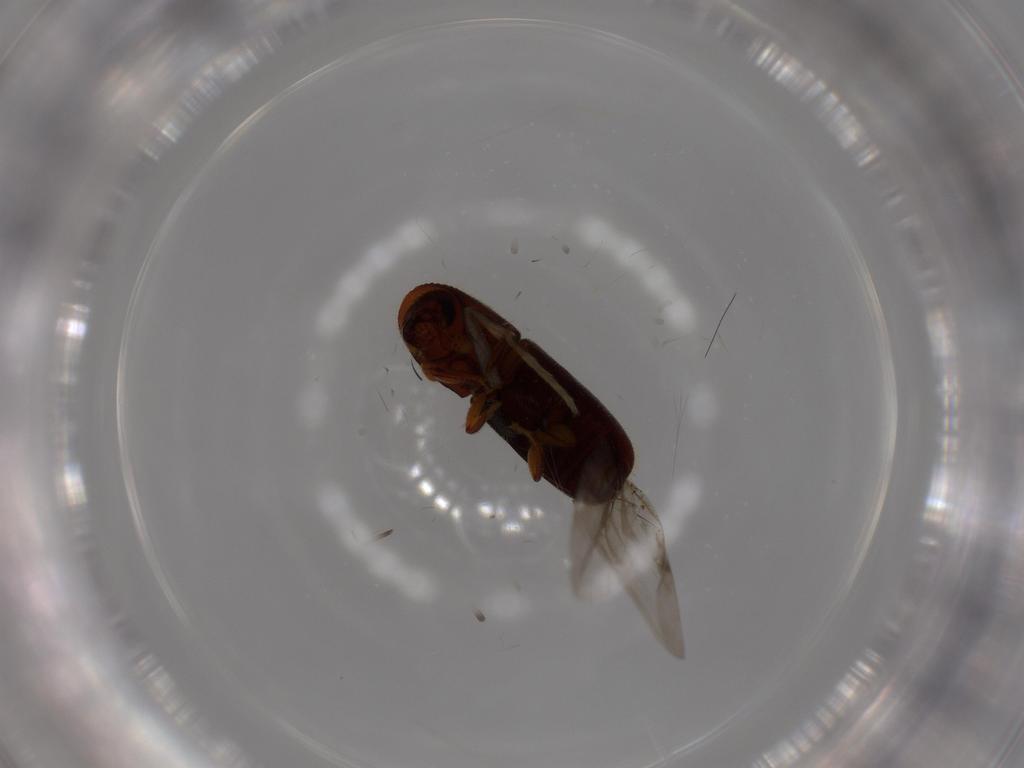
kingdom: Animalia
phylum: Arthropoda
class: Insecta
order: Coleoptera
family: Curculionidae
